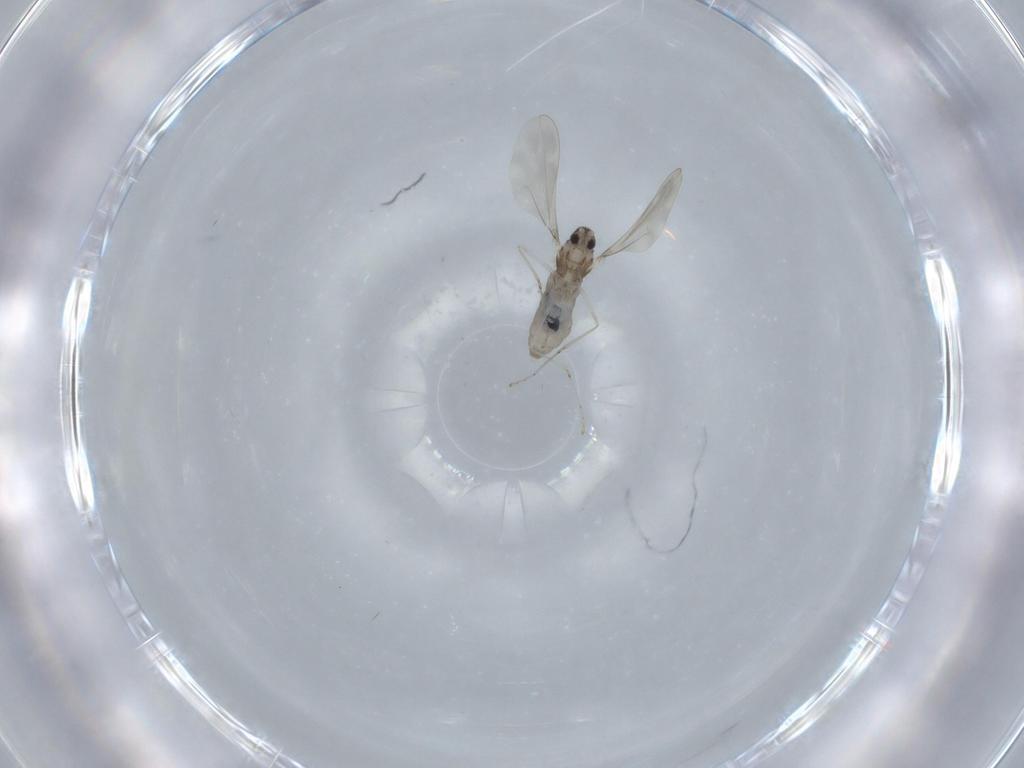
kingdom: Animalia
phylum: Arthropoda
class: Insecta
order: Diptera
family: Cecidomyiidae
